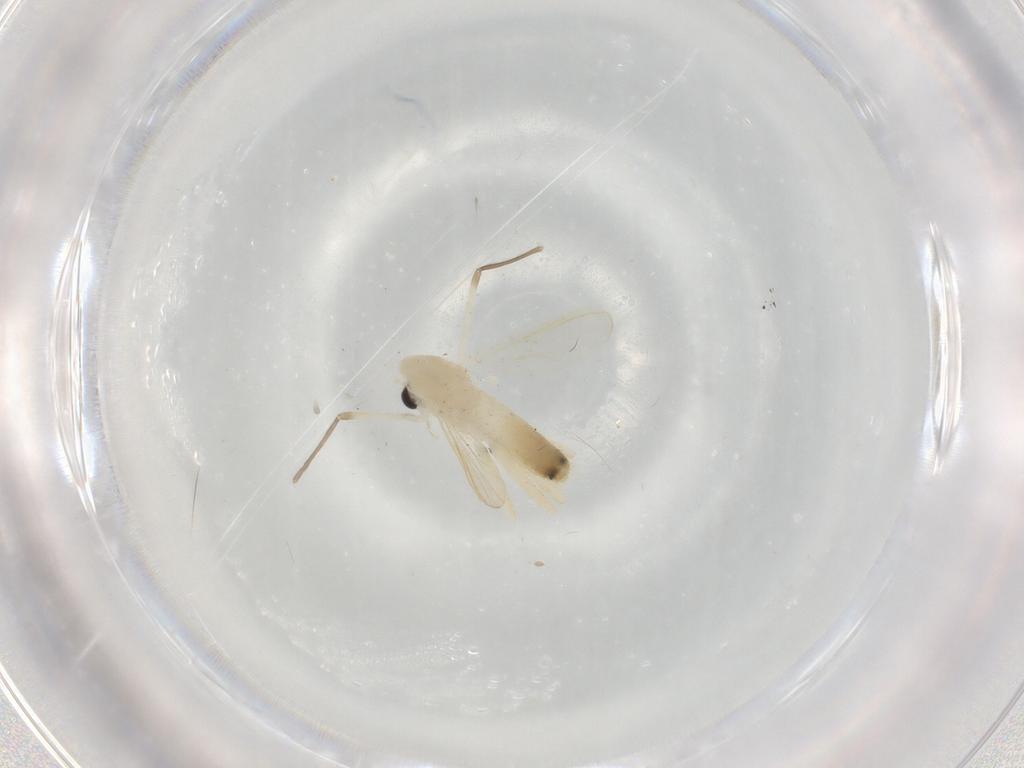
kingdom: Animalia
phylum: Arthropoda
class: Insecta
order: Diptera
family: Chironomidae
